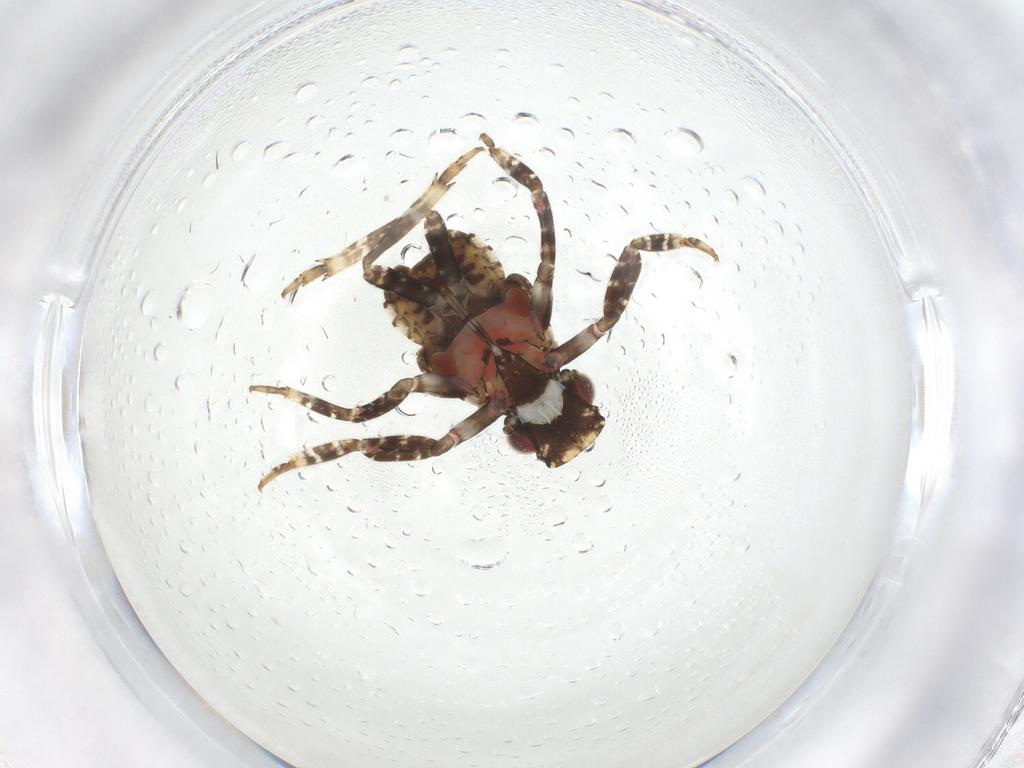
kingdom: Animalia
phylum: Arthropoda
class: Insecta
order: Hemiptera
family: Fulgoridae
